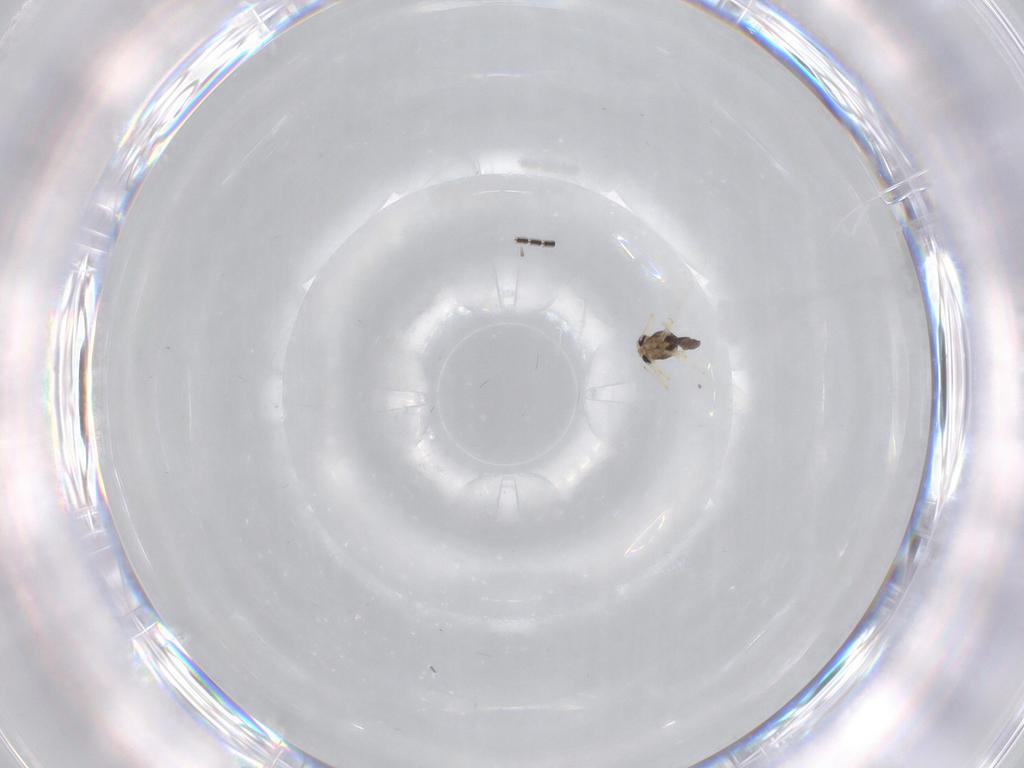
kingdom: Animalia
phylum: Arthropoda
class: Insecta
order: Diptera
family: Chironomidae
